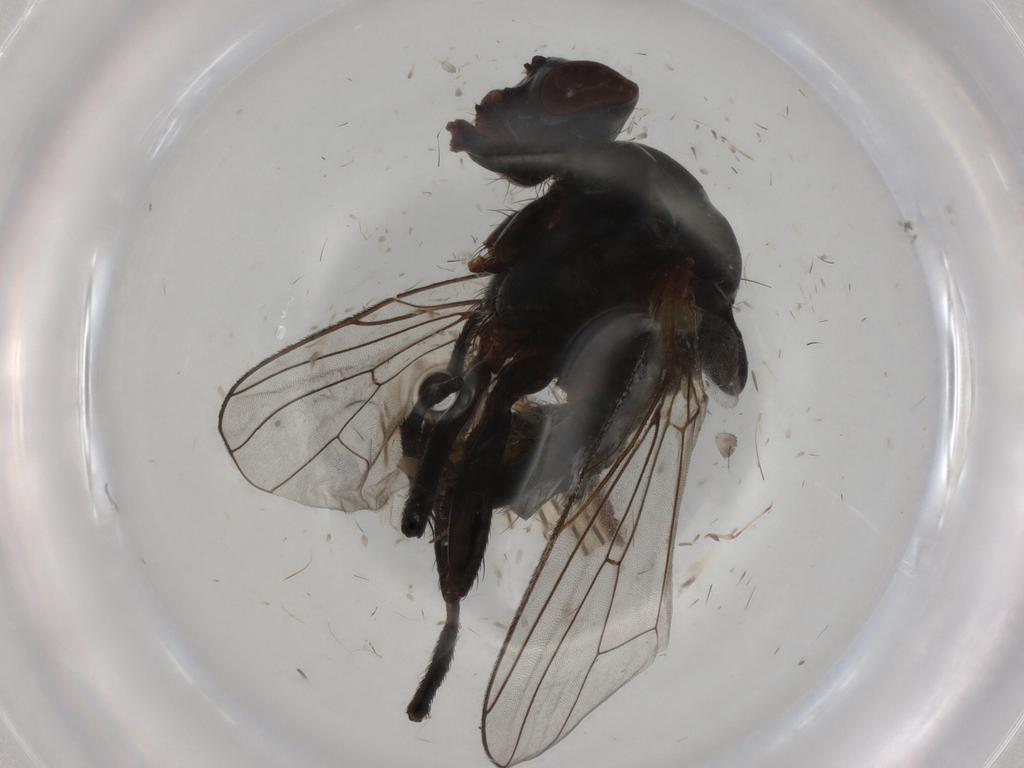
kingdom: Animalia
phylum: Arthropoda
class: Insecta
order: Diptera
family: Anthomyiidae
